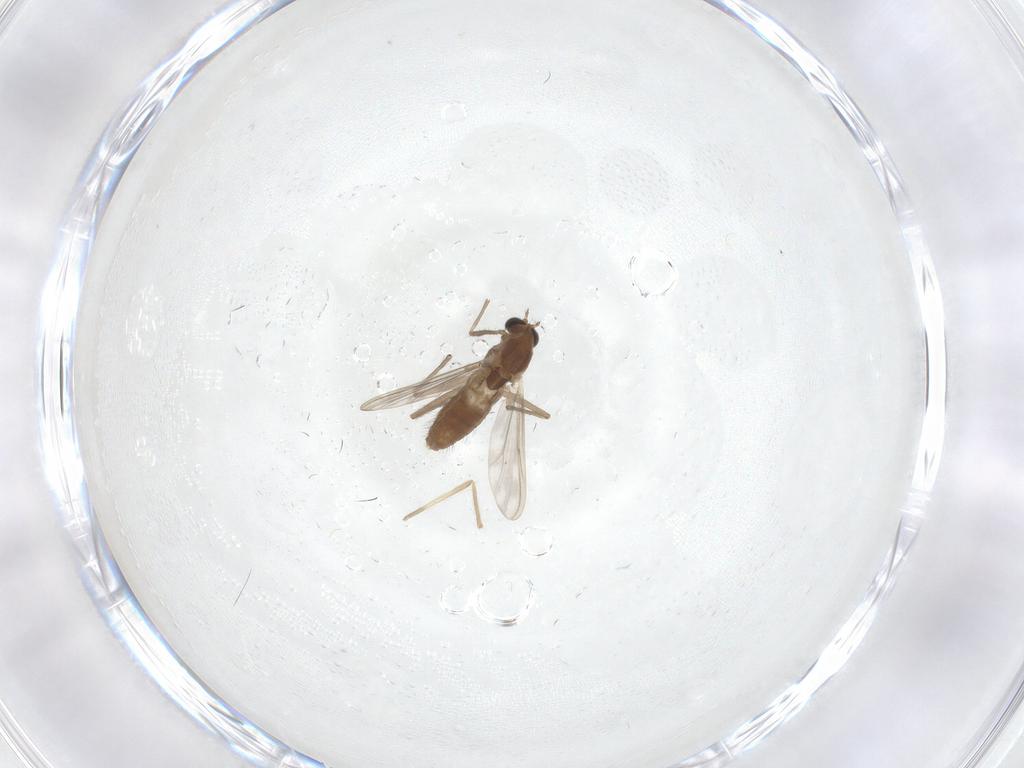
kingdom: Animalia
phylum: Arthropoda
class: Insecta
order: Diptera
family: Chironomidae
